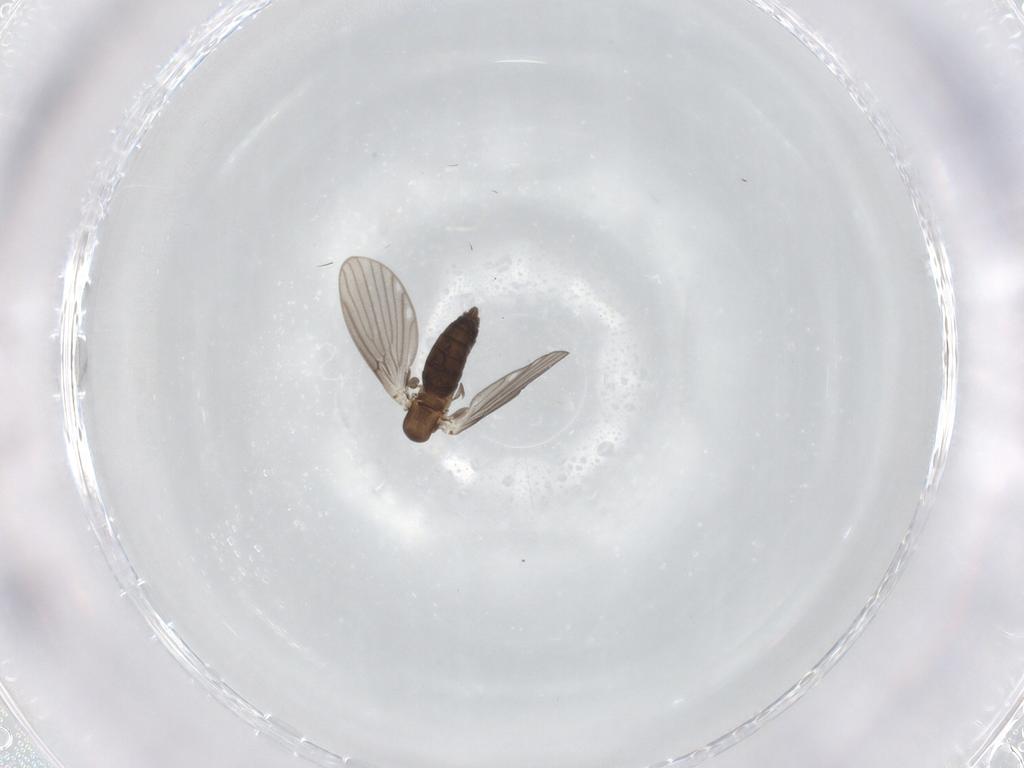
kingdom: Animalia
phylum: Arthropoda
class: Insecta
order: Diptera
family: Psychodidae
